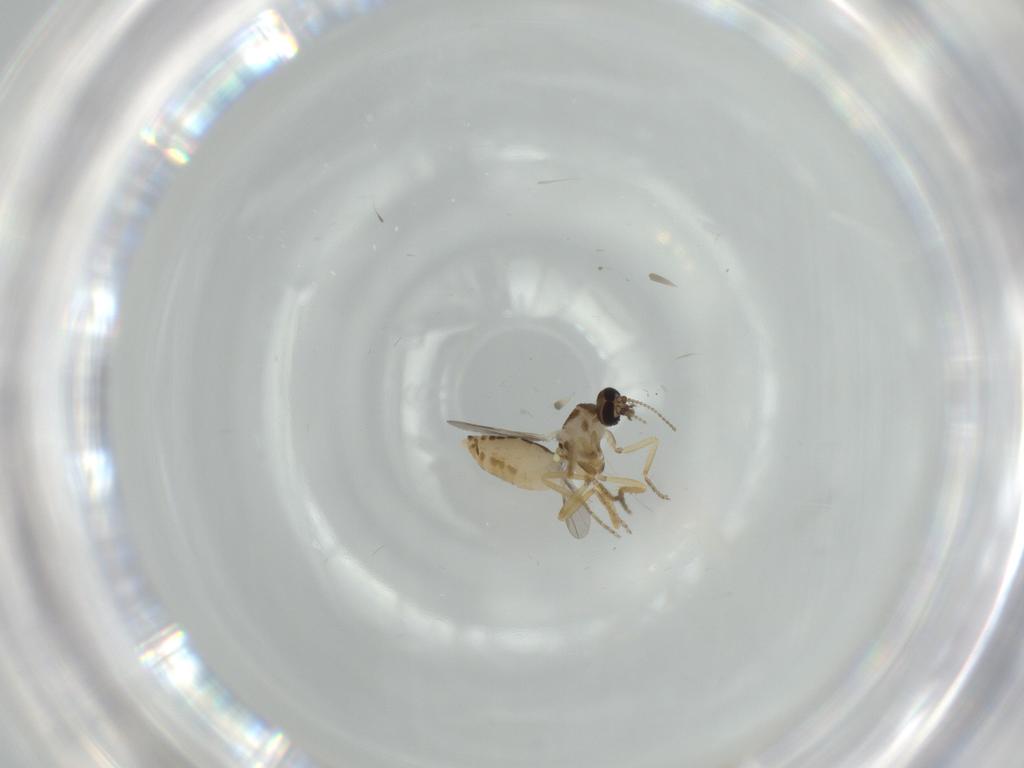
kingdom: Animalia
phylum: Arthropoda
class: Insecta
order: Diptera
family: Ceratopogonidae
